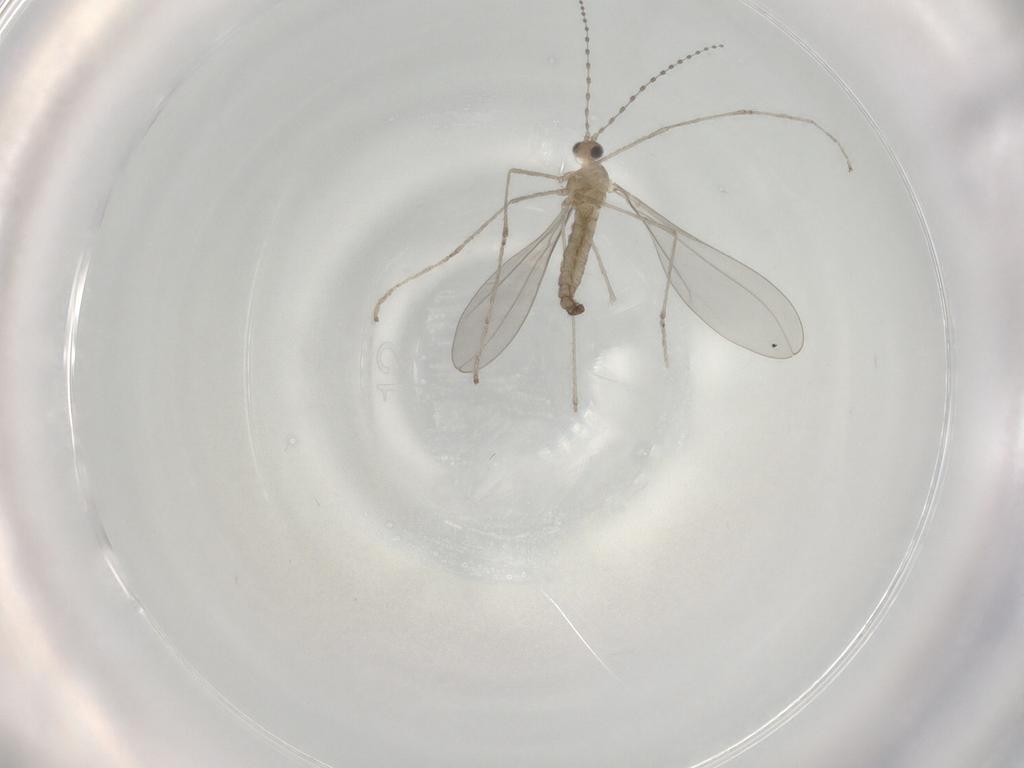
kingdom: Animalia
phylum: Arthropoda
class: Insecta
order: Diptera
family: Cecidomyiidae
